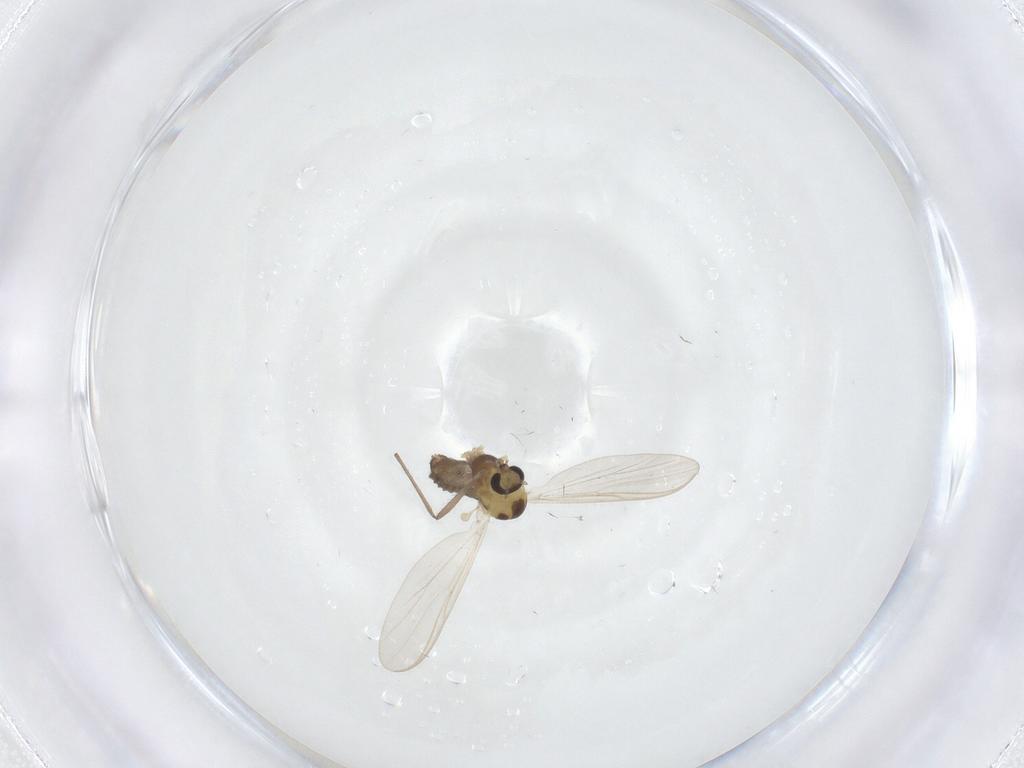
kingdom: Animalia
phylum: Arthropoda
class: Insecta
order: Diptera
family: Chironomidae
